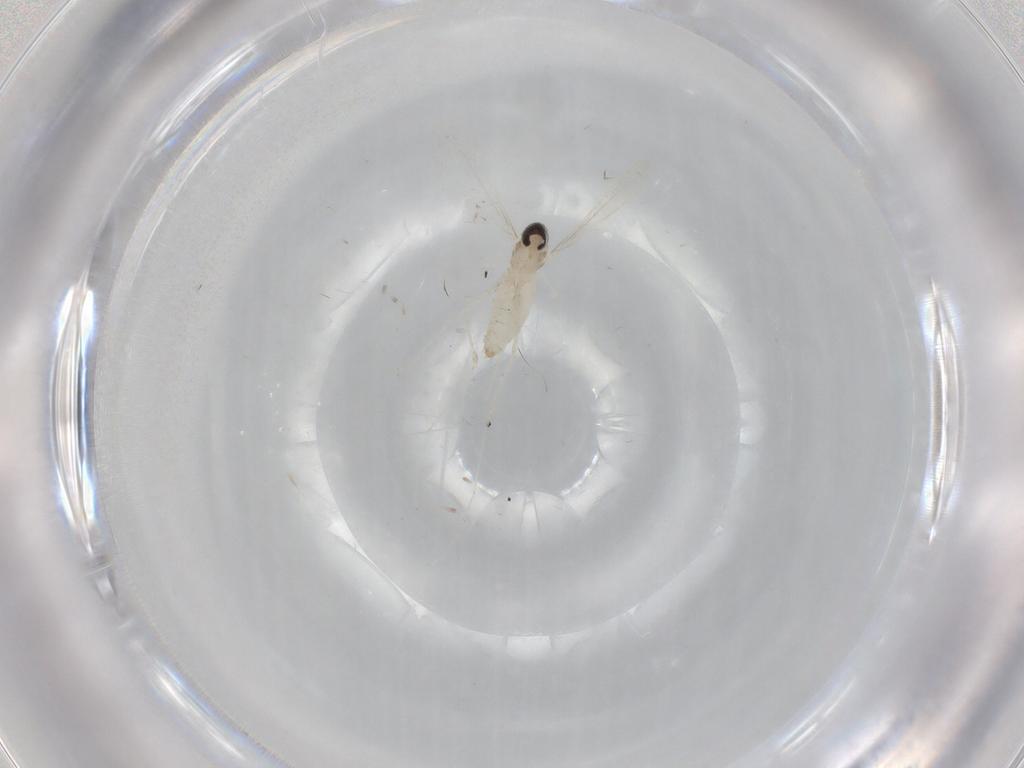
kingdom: Animalia
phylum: Arthropoda
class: Insecta
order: Diptera
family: Cecidomyiidae
